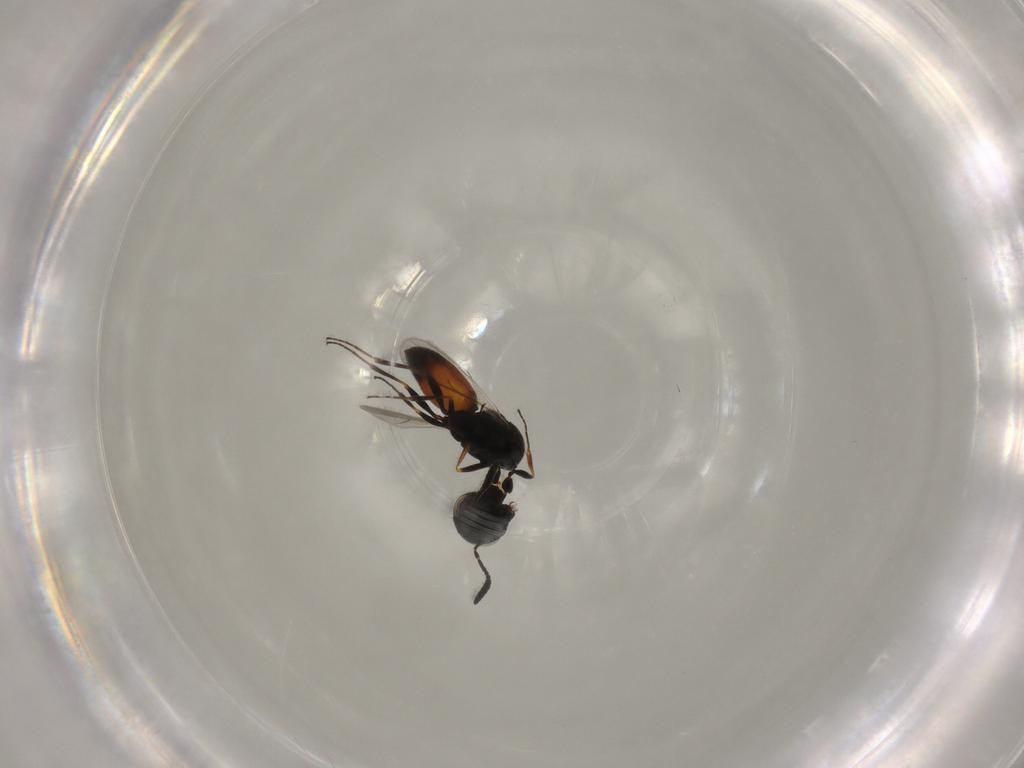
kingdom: Animalia
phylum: Arthropoda
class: Insecta
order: Hymenoptera
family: Scelionidae
